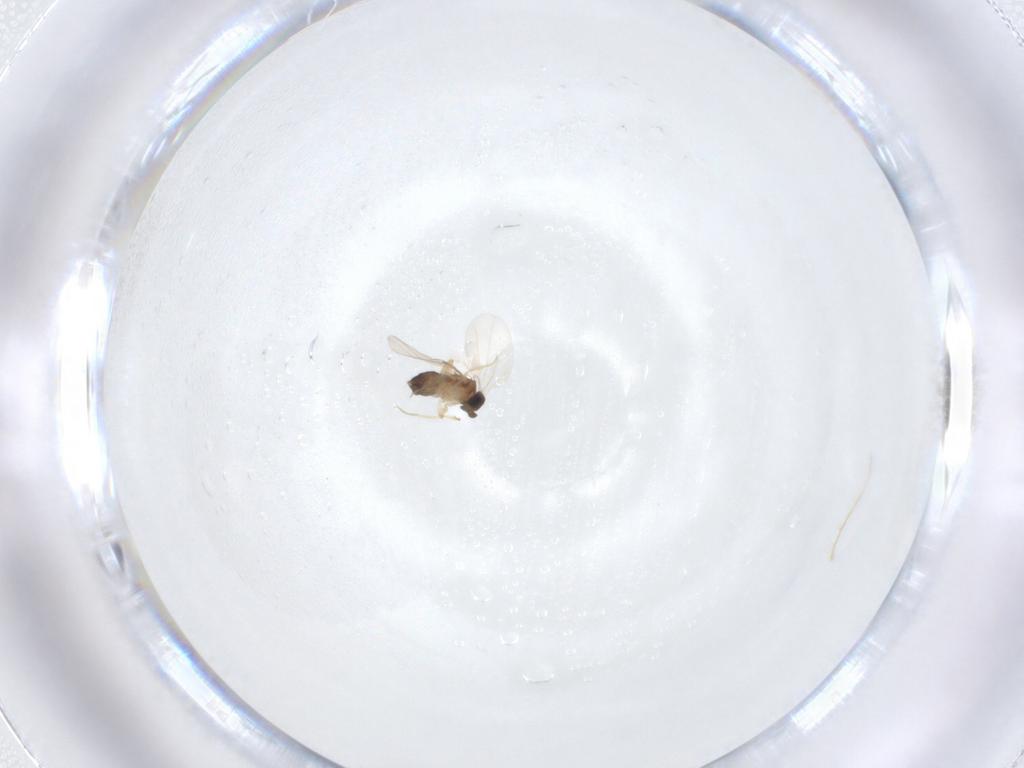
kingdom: Animalia
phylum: Arthropoda
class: Insecta
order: Diptera
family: Phoridae
